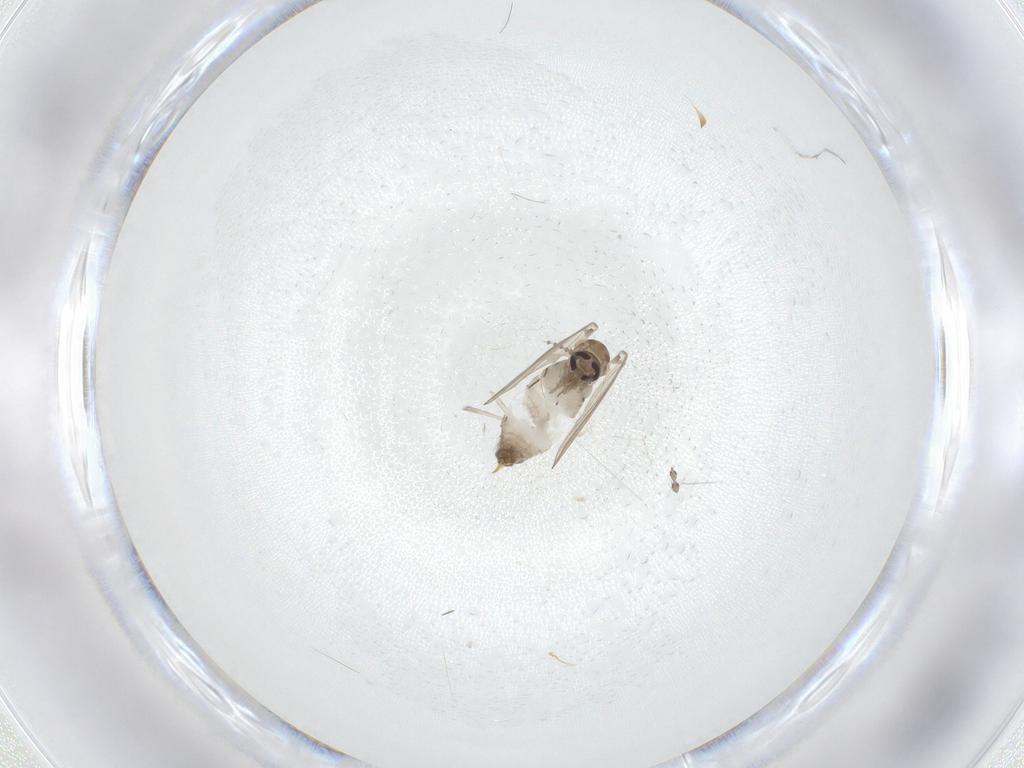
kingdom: Animalia
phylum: Arthropoda
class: Insecta
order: Diptera
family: Psychodidae
